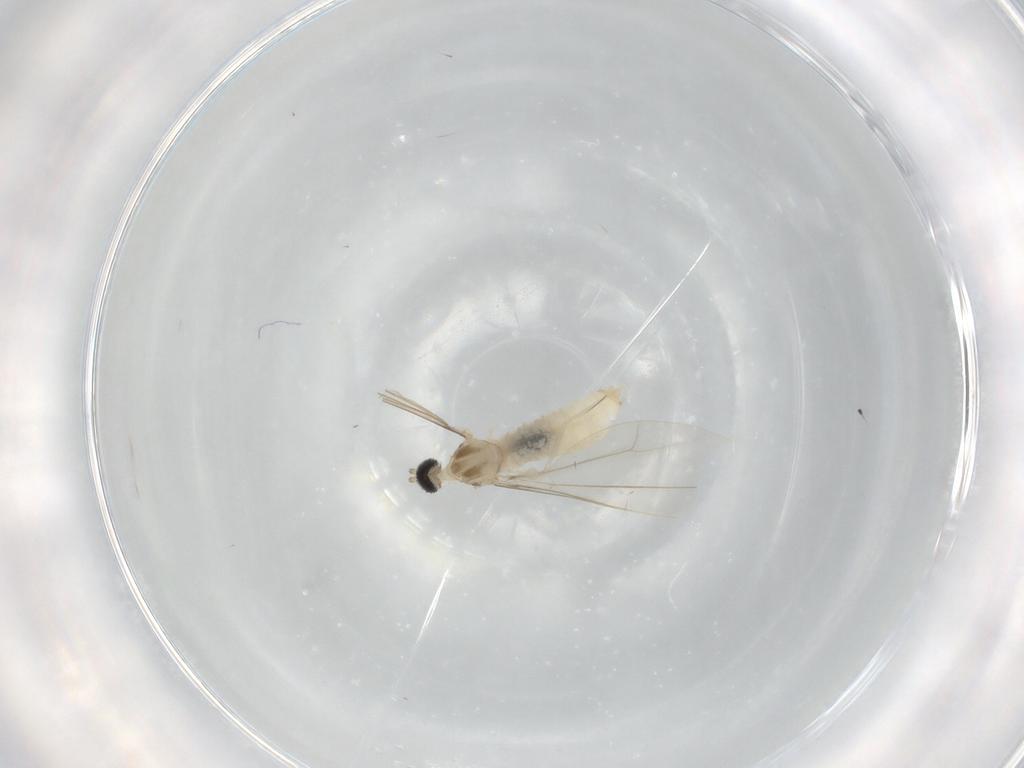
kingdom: Animalia
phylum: Arthropoda
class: Insecta
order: Diptera
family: Cecidomyiidae
